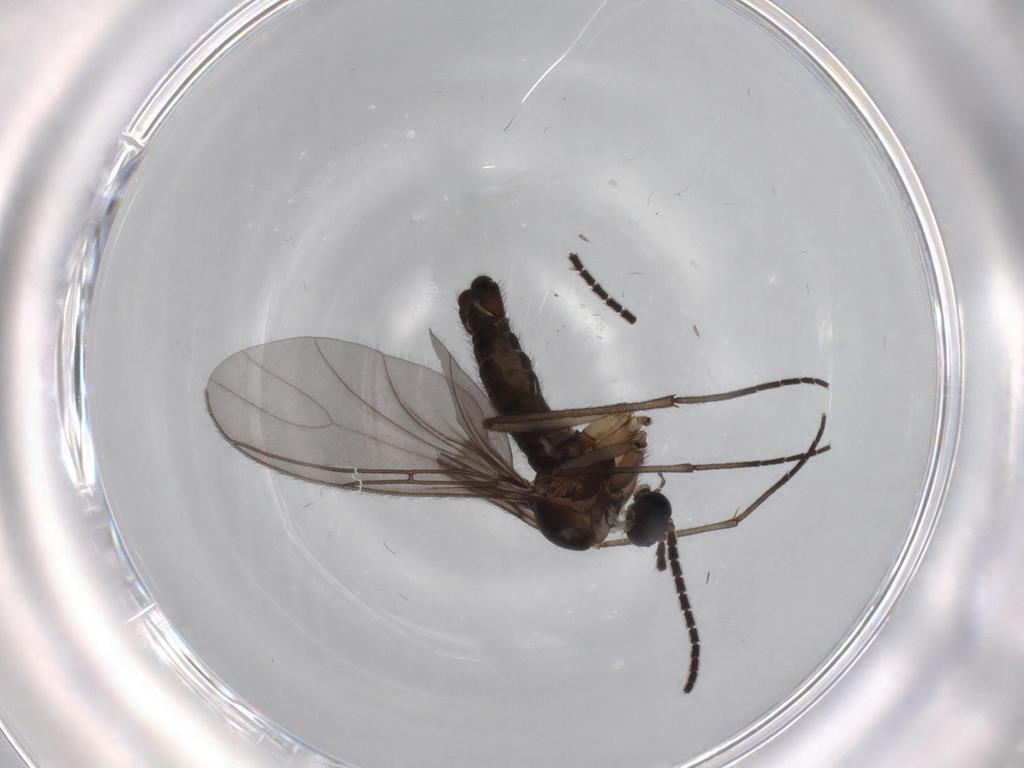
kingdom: Animalia
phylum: Arthropoda
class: Insecta
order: Diptera
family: Sciaridae
